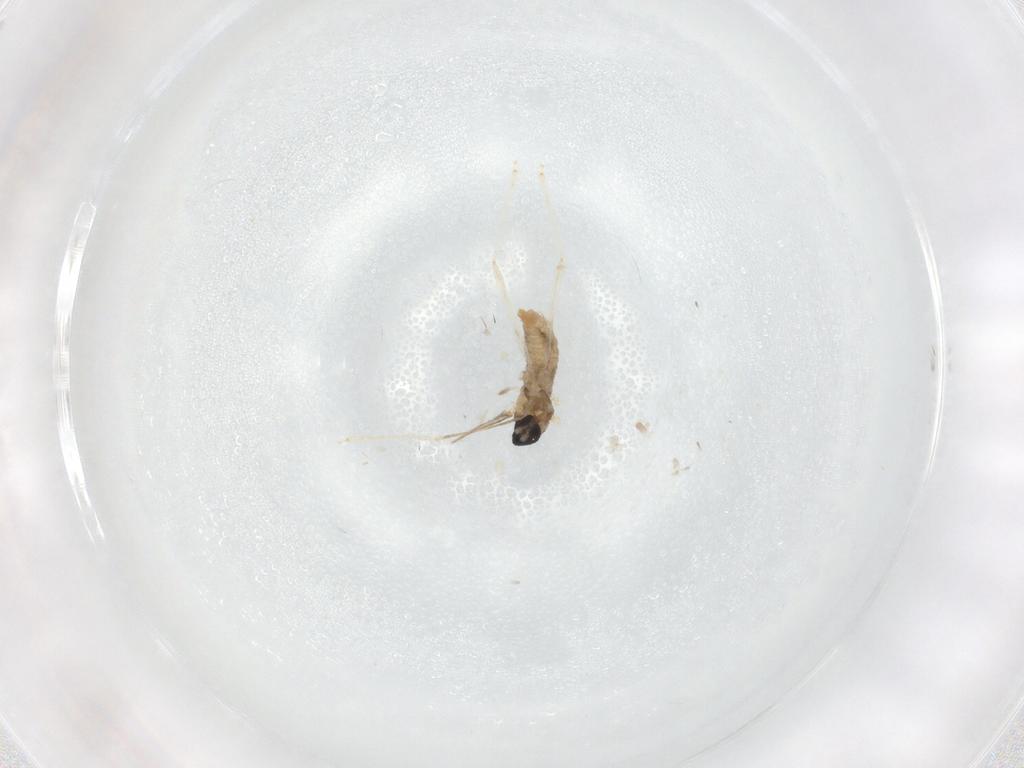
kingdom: Animalia
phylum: Arthropoda
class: Insecta
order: Diptera
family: Cecidomyiidae
